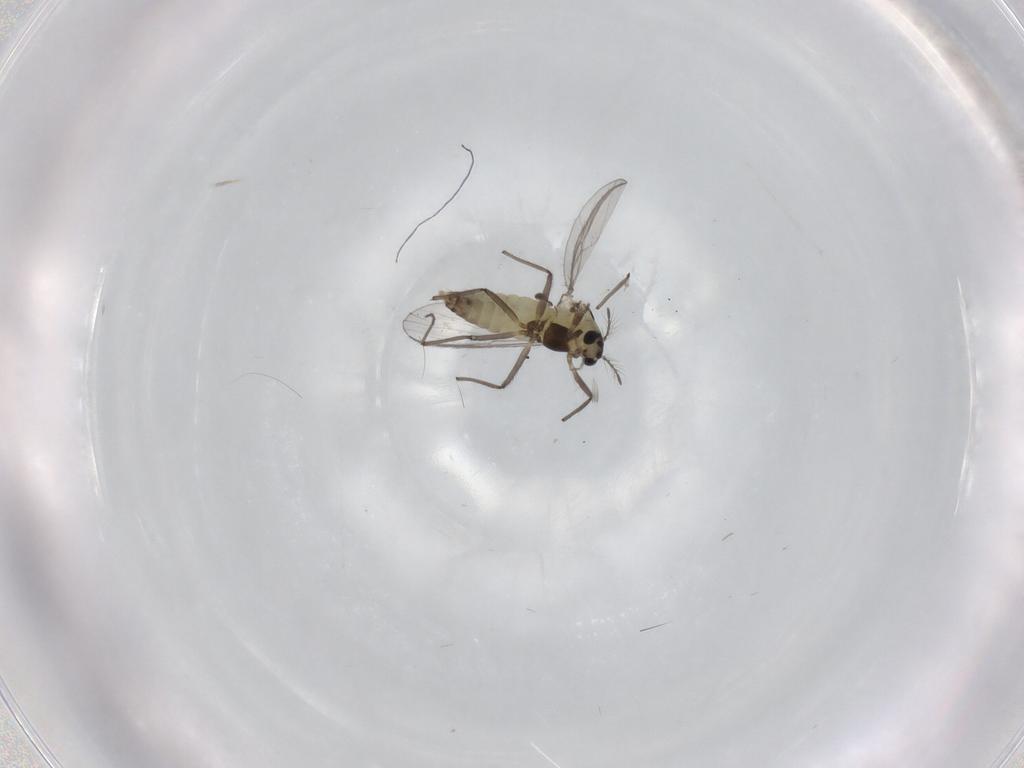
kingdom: Animalia
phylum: Arthropoda
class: Insecta
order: Diptera
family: Chironomidae
